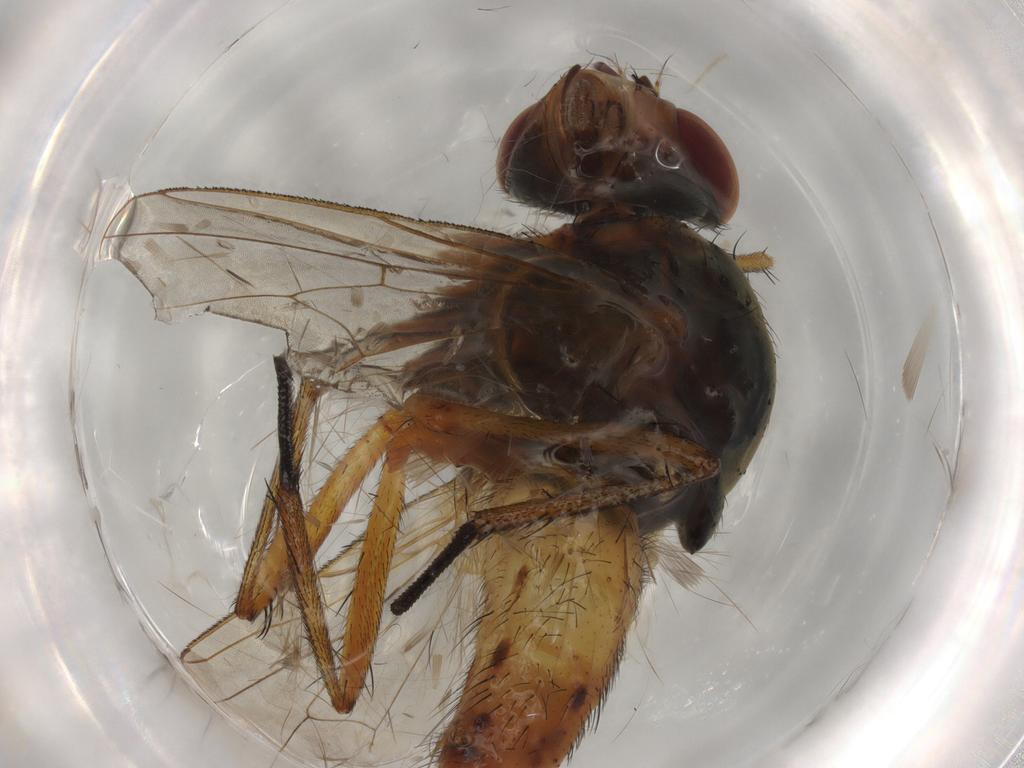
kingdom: Animalia
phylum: Arthropoda
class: Insecta
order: Diptera
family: Anthomyiidae
